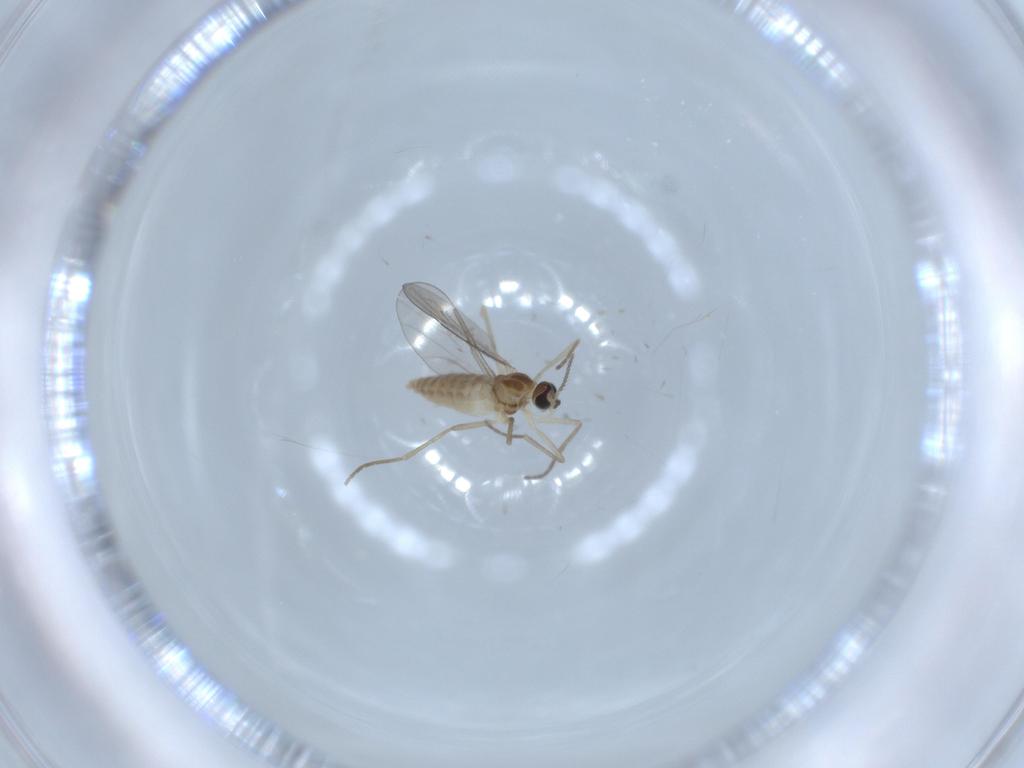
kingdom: Animalia
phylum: Arthropoda
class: Insecta
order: Diptera
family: Cecidomyiidae
